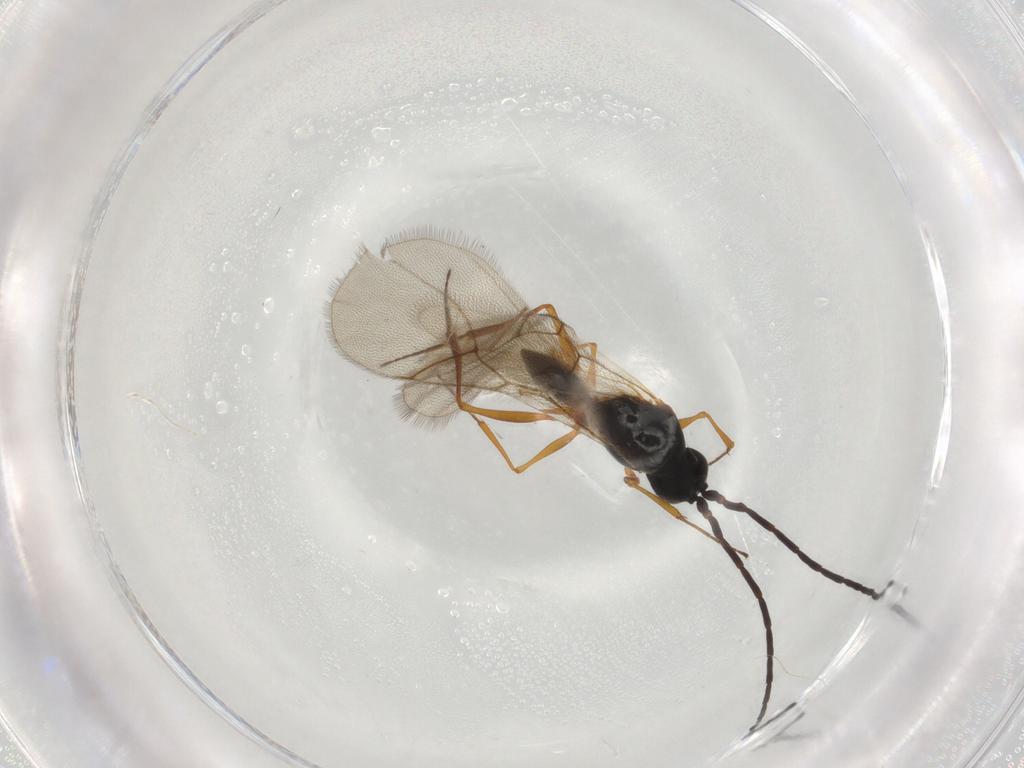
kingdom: Animalia
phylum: Arthropoda
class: Insecta
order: Hymenoptera
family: Figitidae
